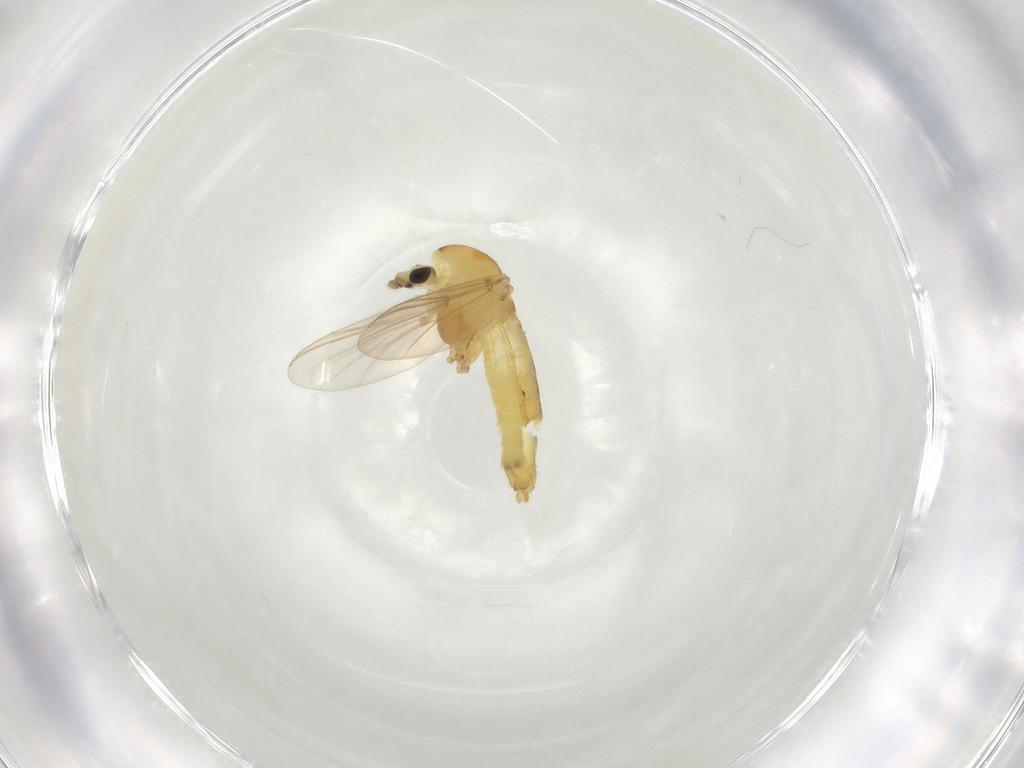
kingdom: Animalia
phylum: Arthropoda
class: Insecta
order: Diptera
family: Chironomidae
